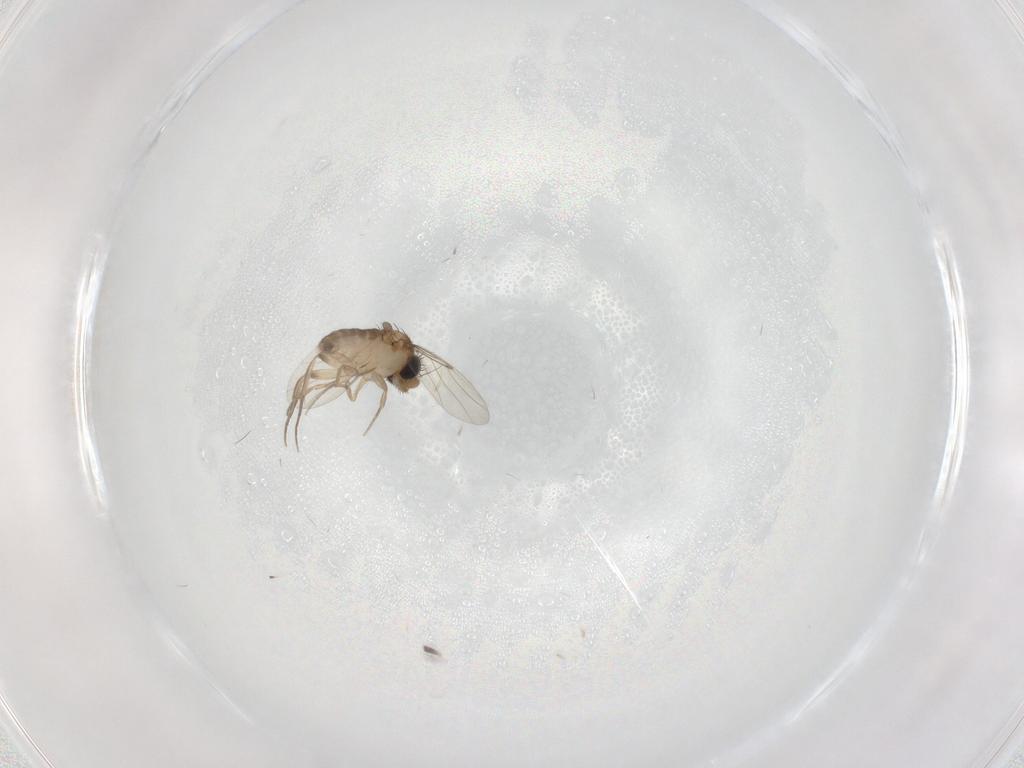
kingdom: Animalia
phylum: Arthropoda
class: Insecta
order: Diptera
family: Phoridae
